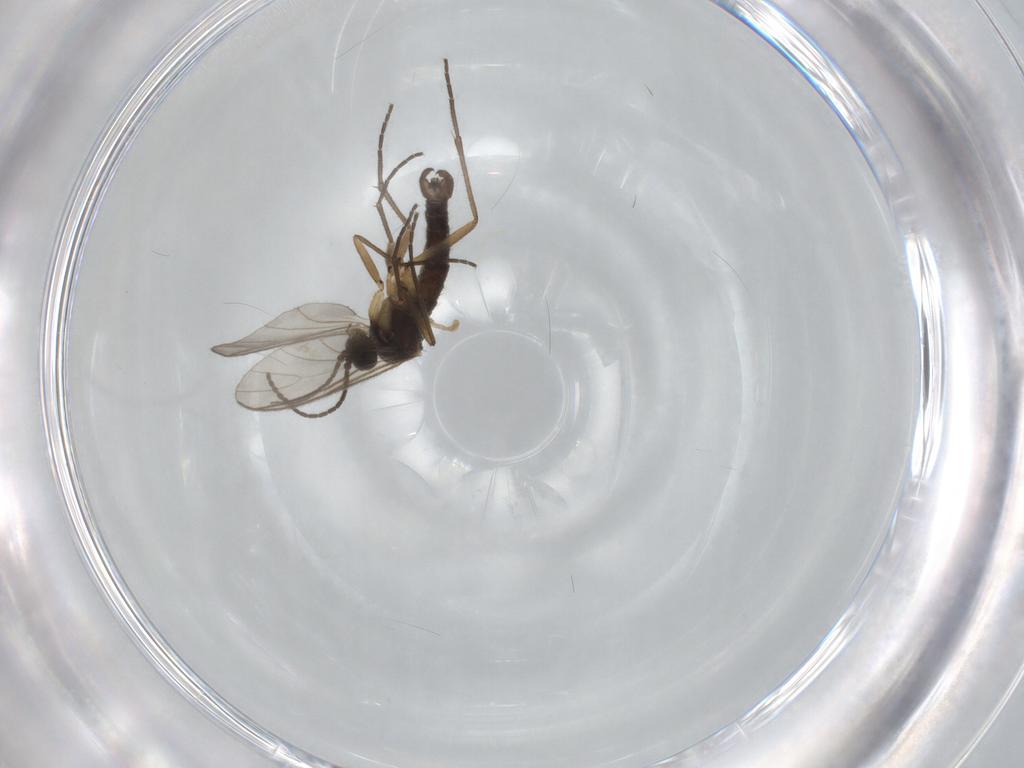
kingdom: Animalia
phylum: Arthropoda
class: Insecta
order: Diptera
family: Sciaridae
